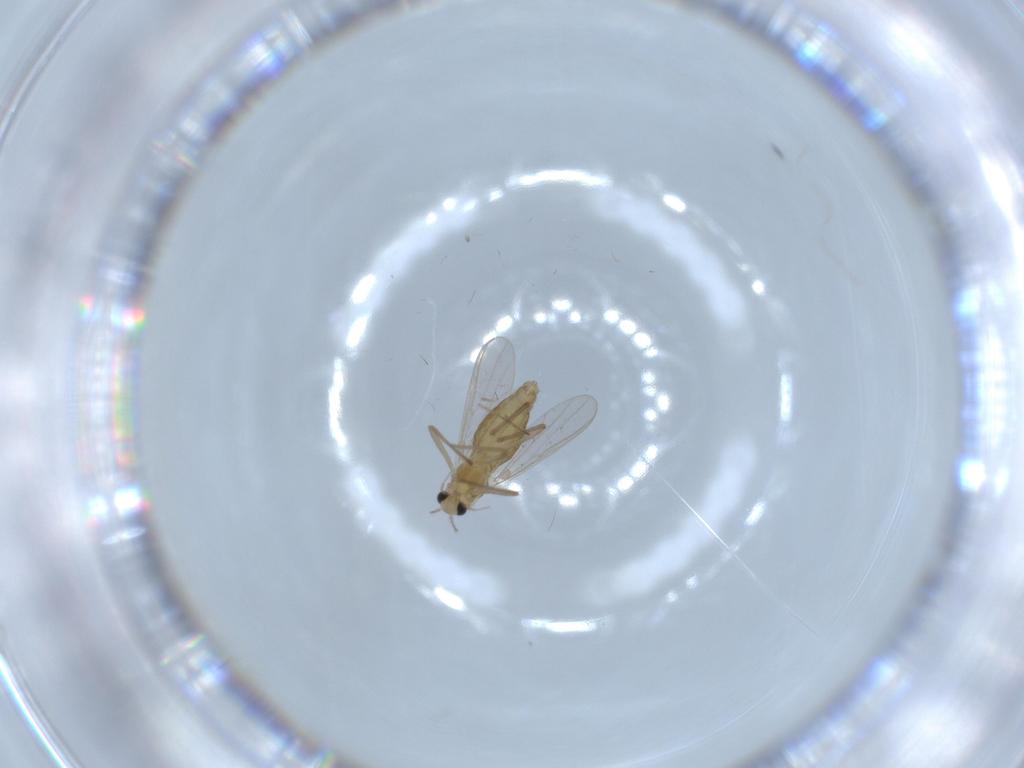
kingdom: Animalia
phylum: Arthropoda
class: Insecta
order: Diptera
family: Chironomidae
